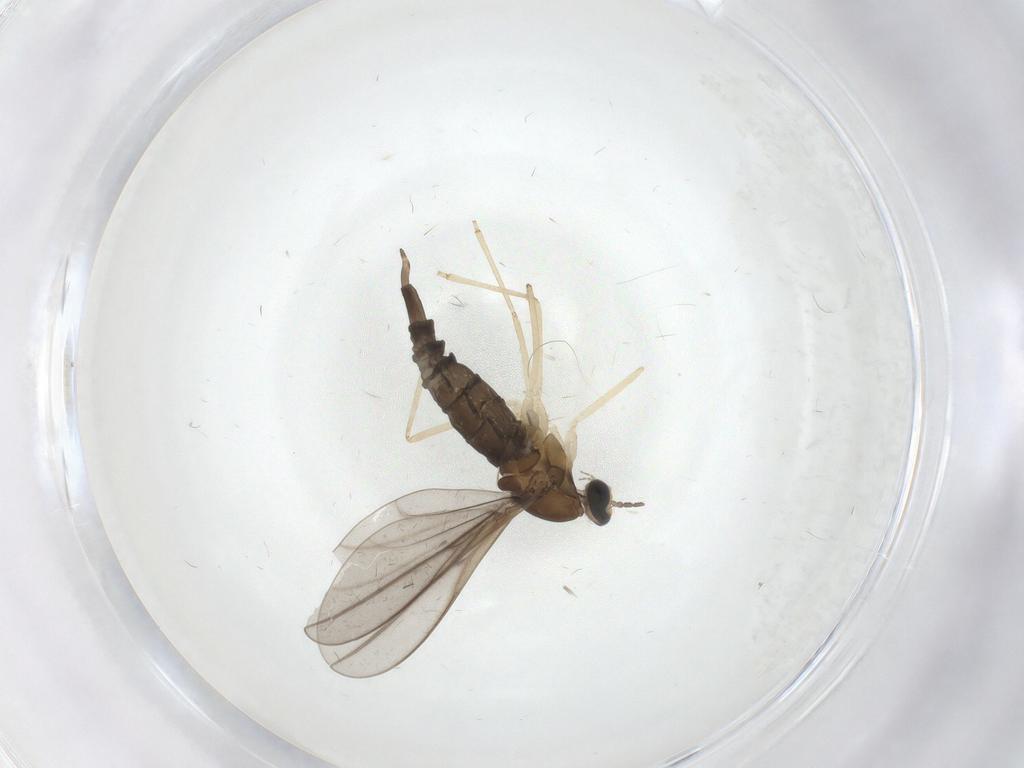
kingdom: Animalia
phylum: Arthropoda
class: Insecta
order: Diptera
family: Cecidomyiidae
